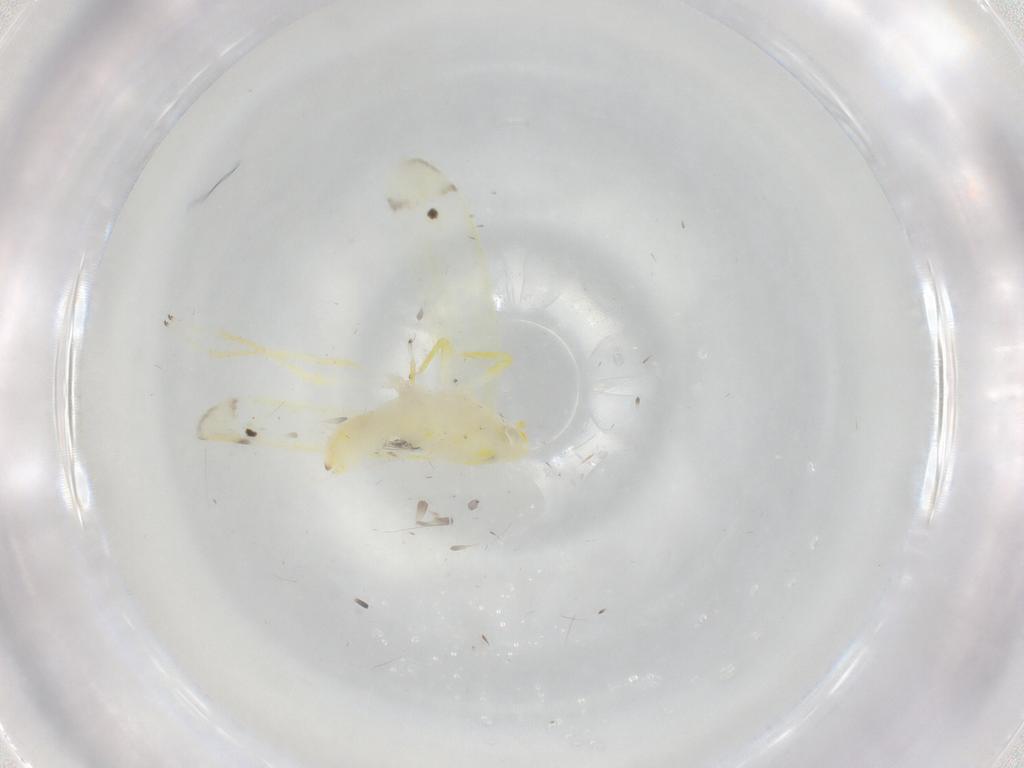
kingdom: Animalia
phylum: Arthropoda
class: Insecta
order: Hemiptera
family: Cicadellidae
